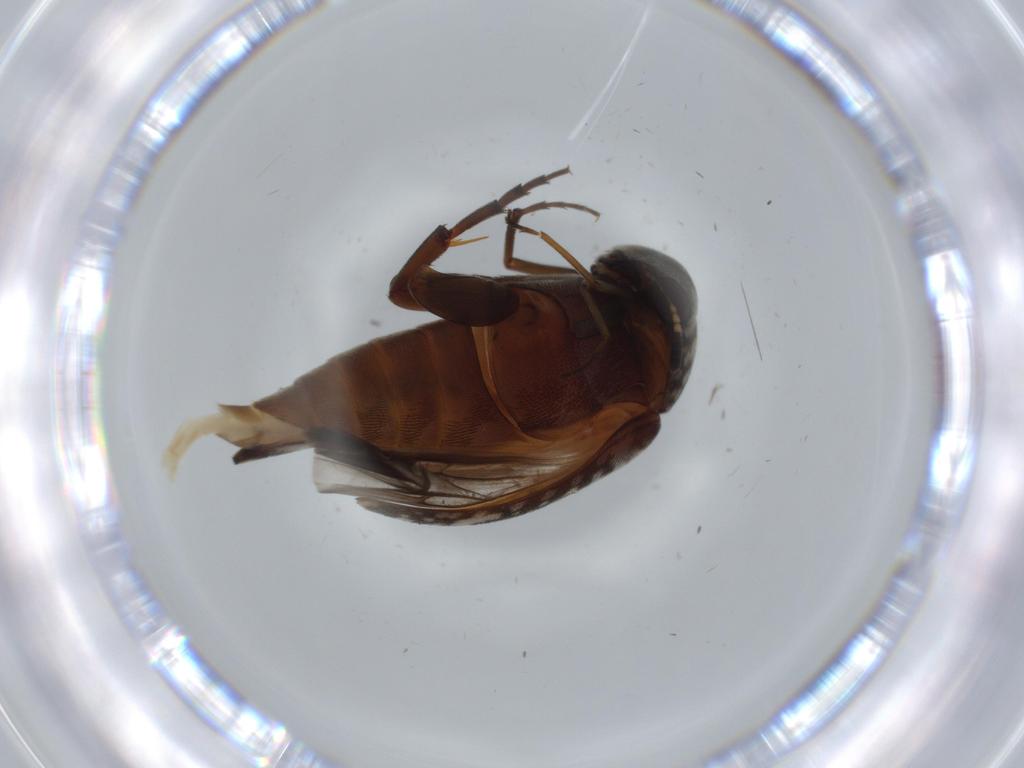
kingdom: Animalia
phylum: Arthropoda
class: Insecta
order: Coleoptera
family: Mordellidae
